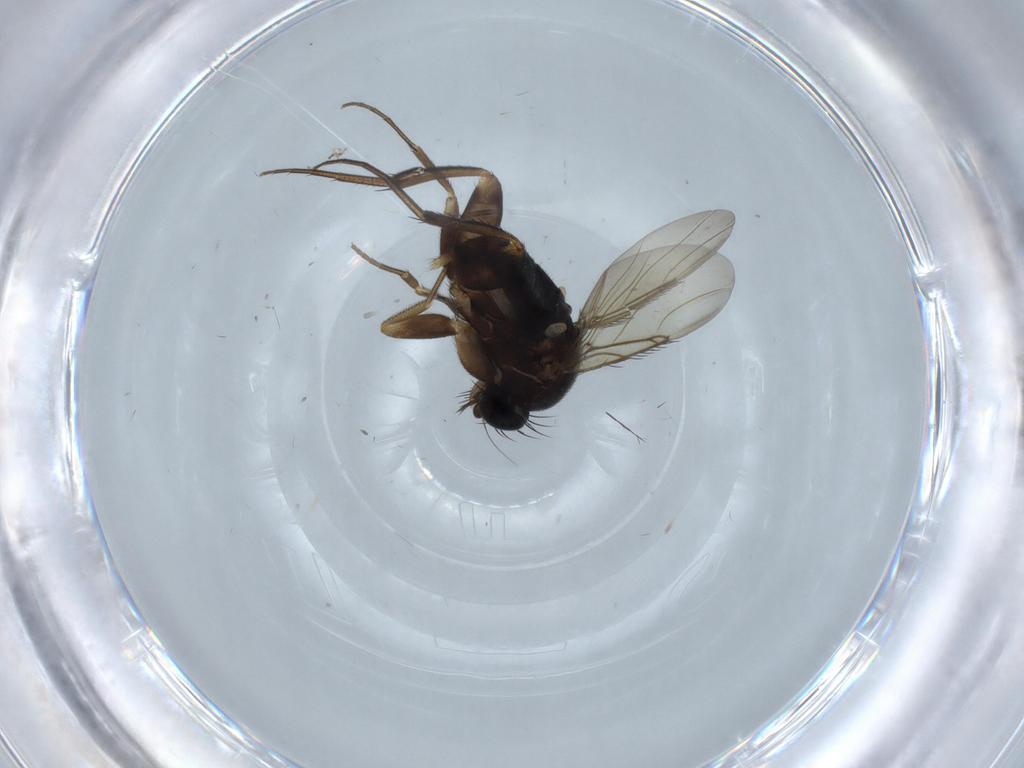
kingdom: Animalia
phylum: Arthropoda
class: Insecta
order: Diptera
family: Phoridae
